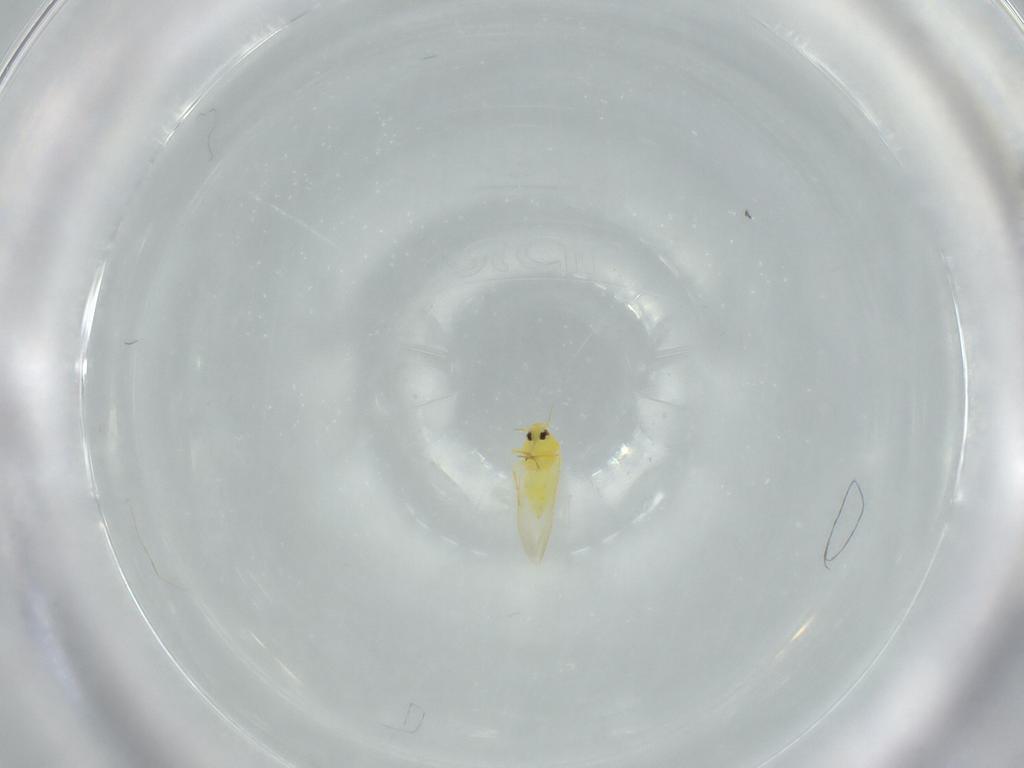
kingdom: Animalia
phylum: Arthropoda
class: Insecta
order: Hemiptera
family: Aleyrodidae
